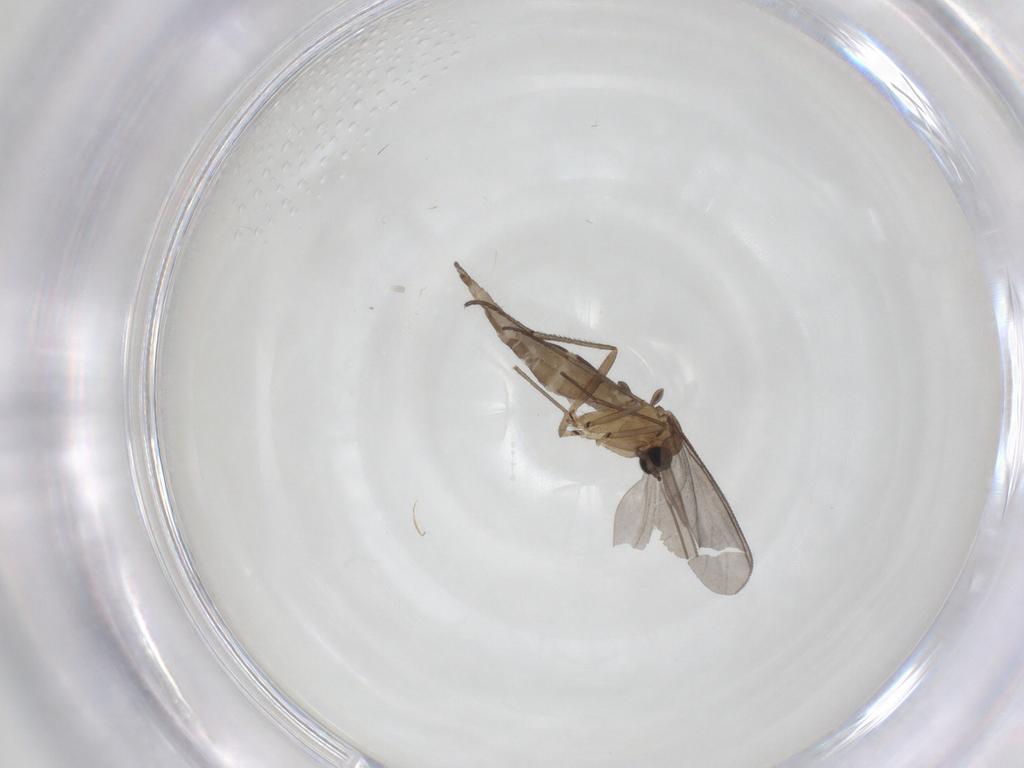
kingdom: Animalia
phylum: Arthropoda
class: Insecta
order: Diptera
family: Sciaridae
